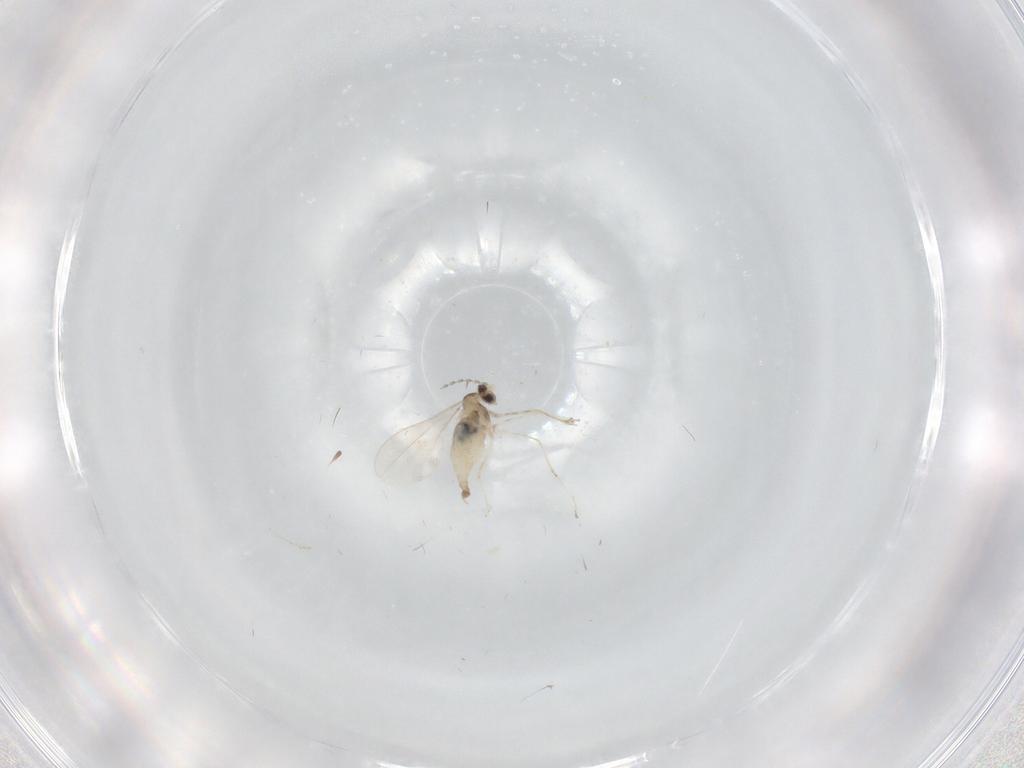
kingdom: Animalia
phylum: Arthropoda
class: Insecta
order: Diptera
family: Cecidomyiidae
